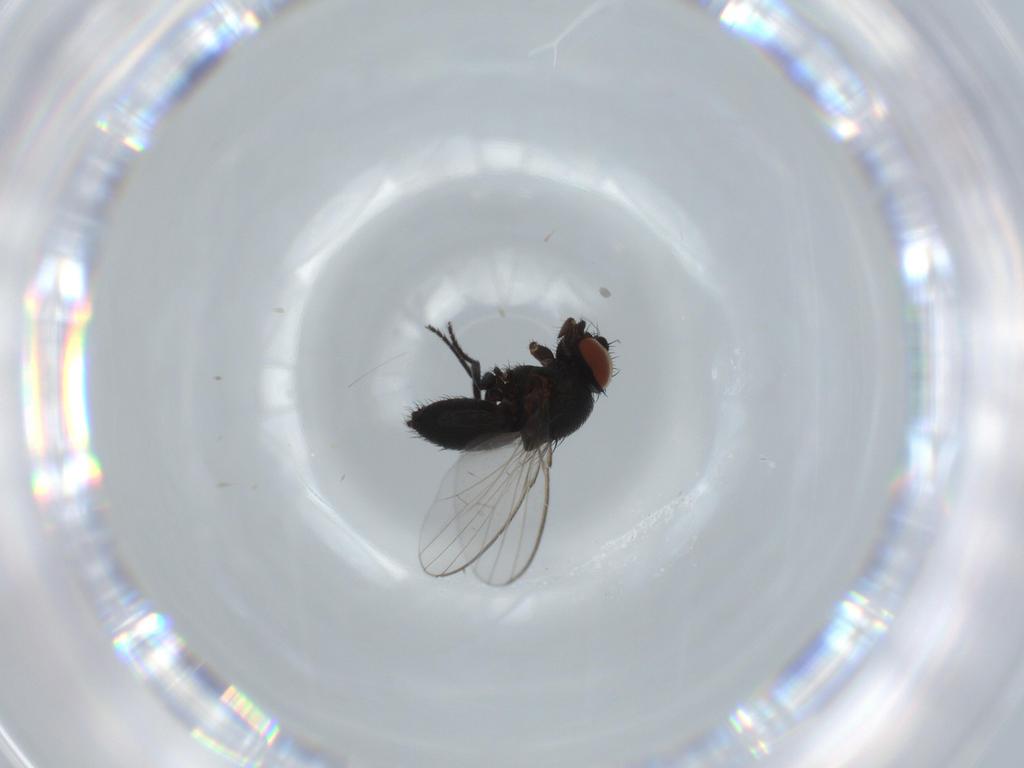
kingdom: Animalia
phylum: Arthropoda
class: Insecta
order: Diptera
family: Milichiidae
